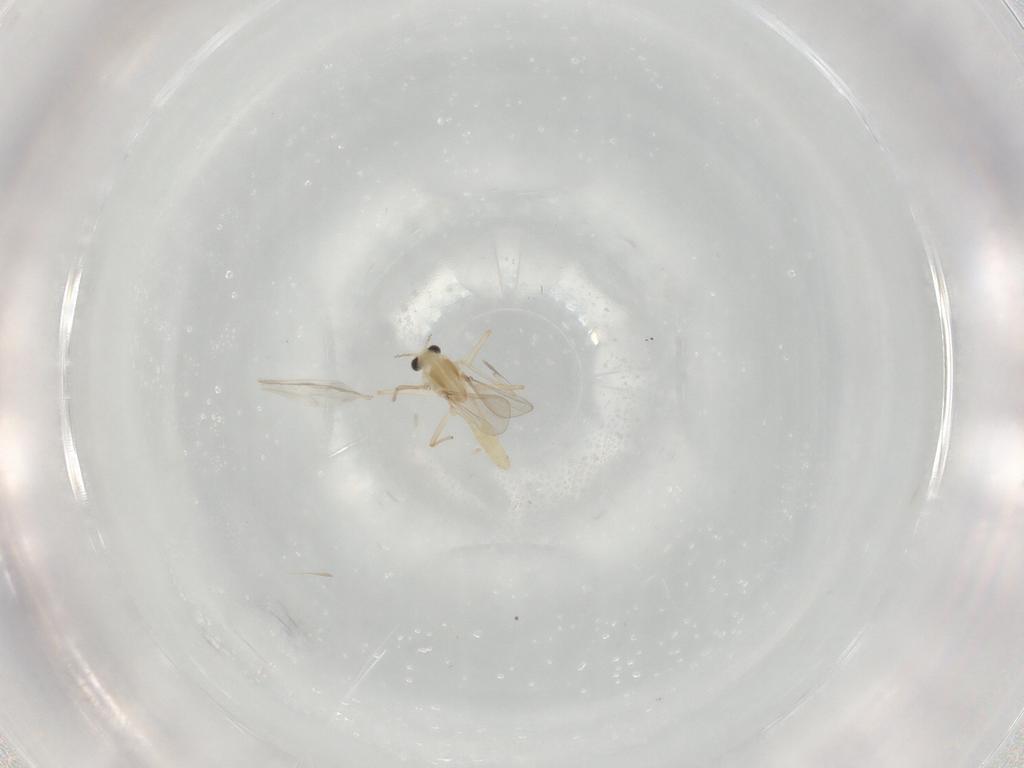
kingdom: Animalia
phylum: Arthropoda
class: Insecta
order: Diptera
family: Chironomidae
